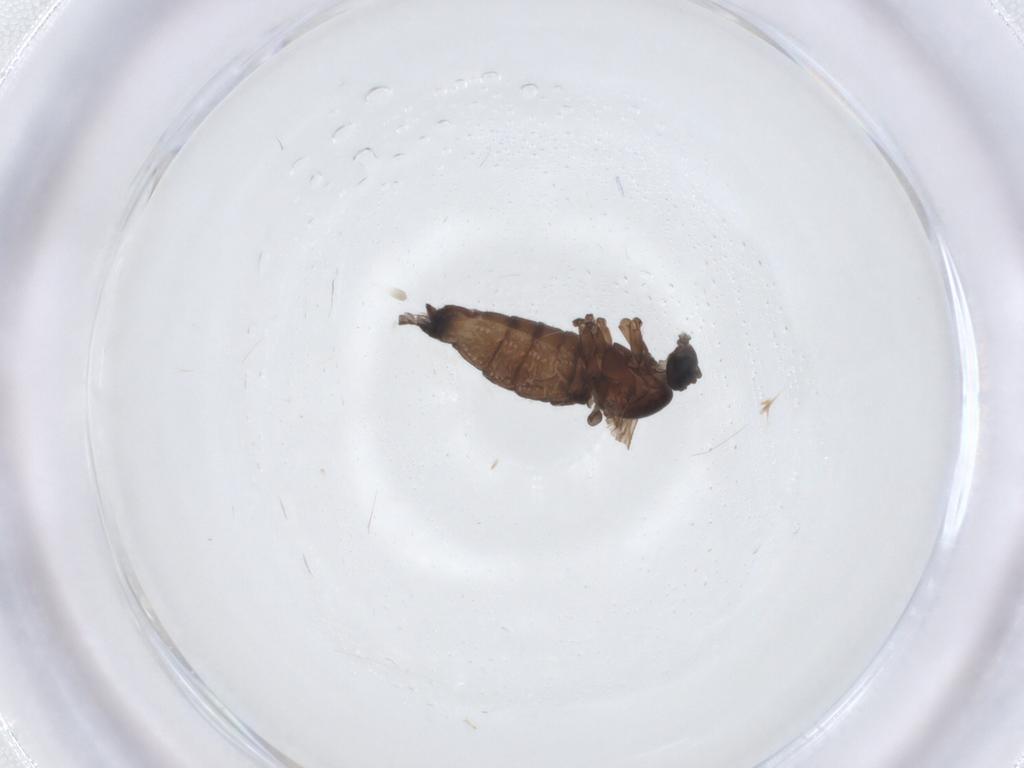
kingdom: Animalia
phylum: Arthropoda
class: Insecta
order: Diptera
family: Sciaridae
